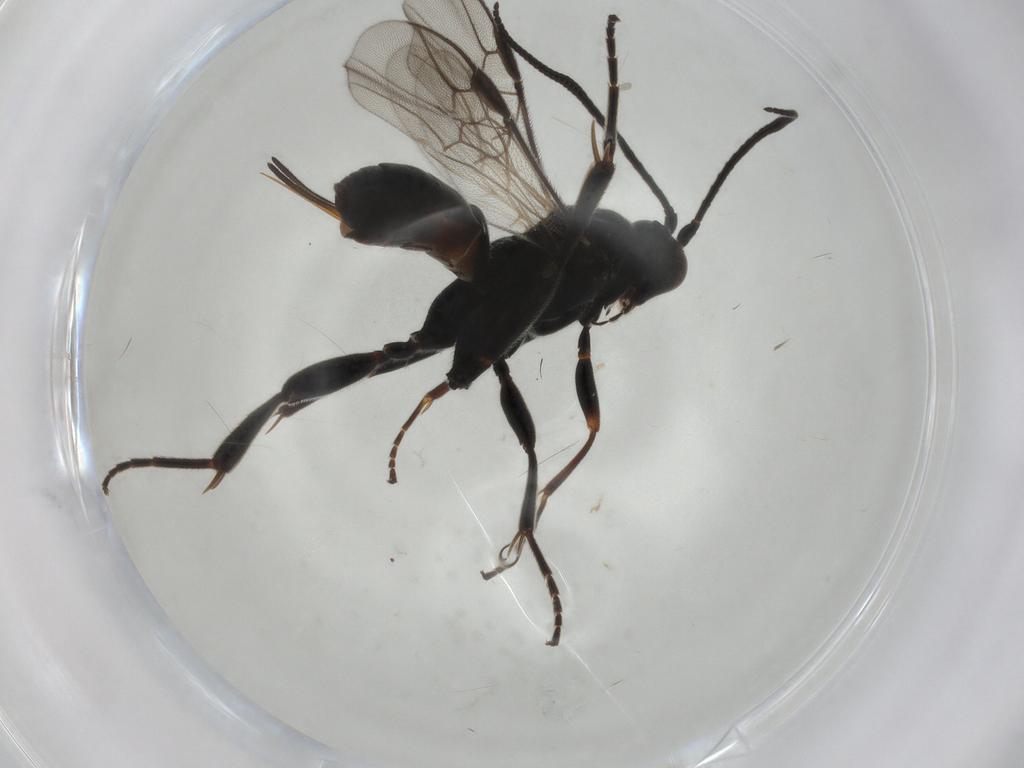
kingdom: Animalia
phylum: Arthropoda
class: Insecta
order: Hymenoptera
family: Braconidae
